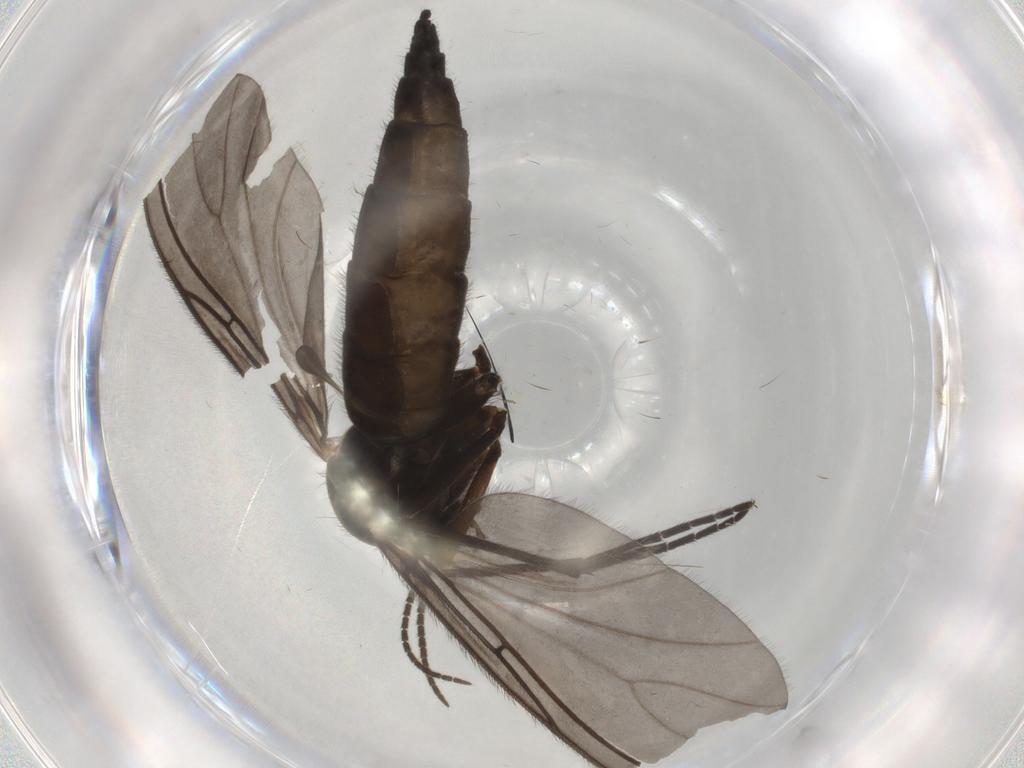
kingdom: Animalia
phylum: Arthropoda
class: Insecta
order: Diptera
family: Sciaridae
